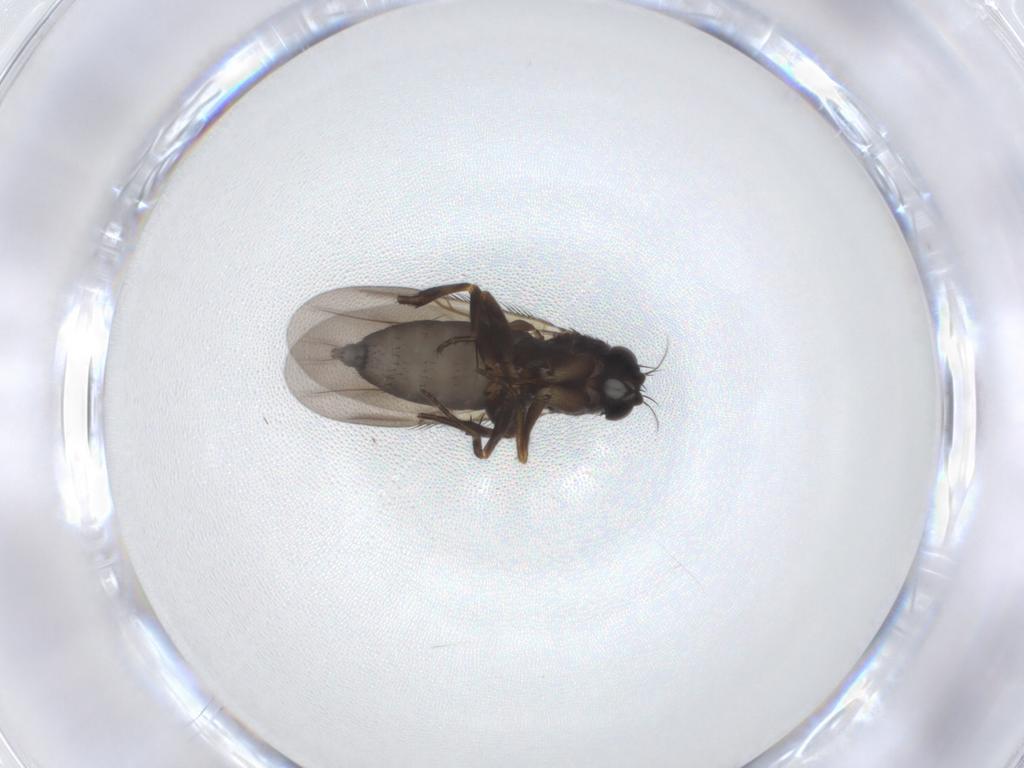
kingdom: Animalia
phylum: Arthropoda
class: Insecta
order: Diptera
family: Phoridae
